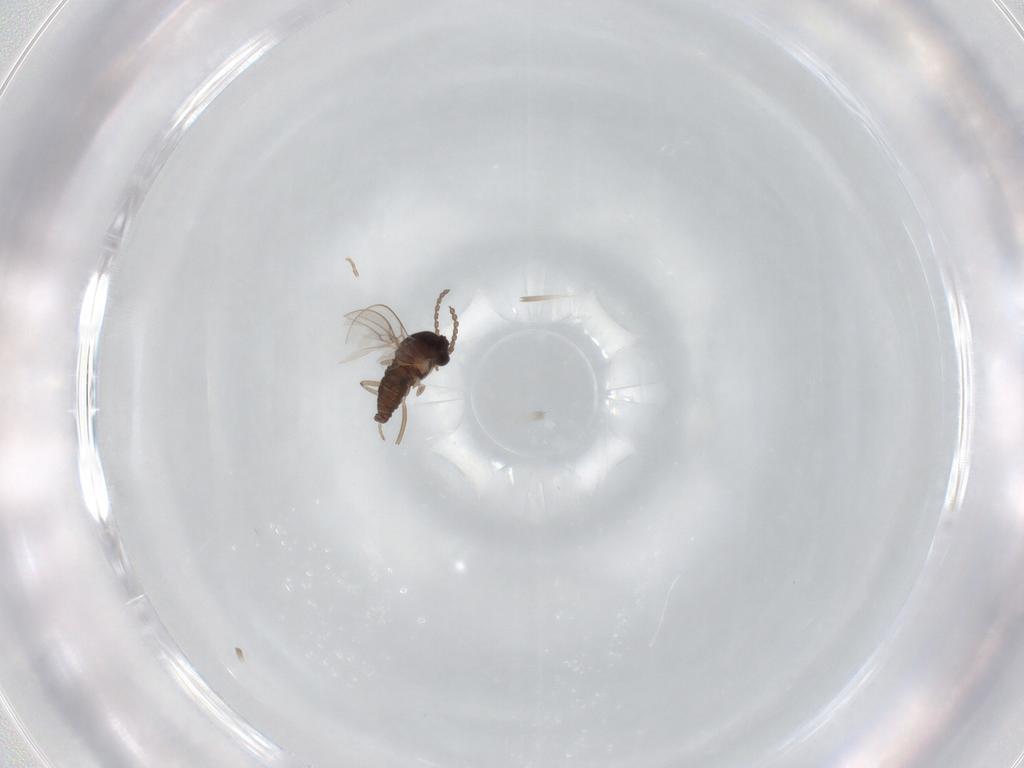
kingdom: Animalia
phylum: Arthropoda
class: Insecta
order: Diptera
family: Cecidomyiidae
